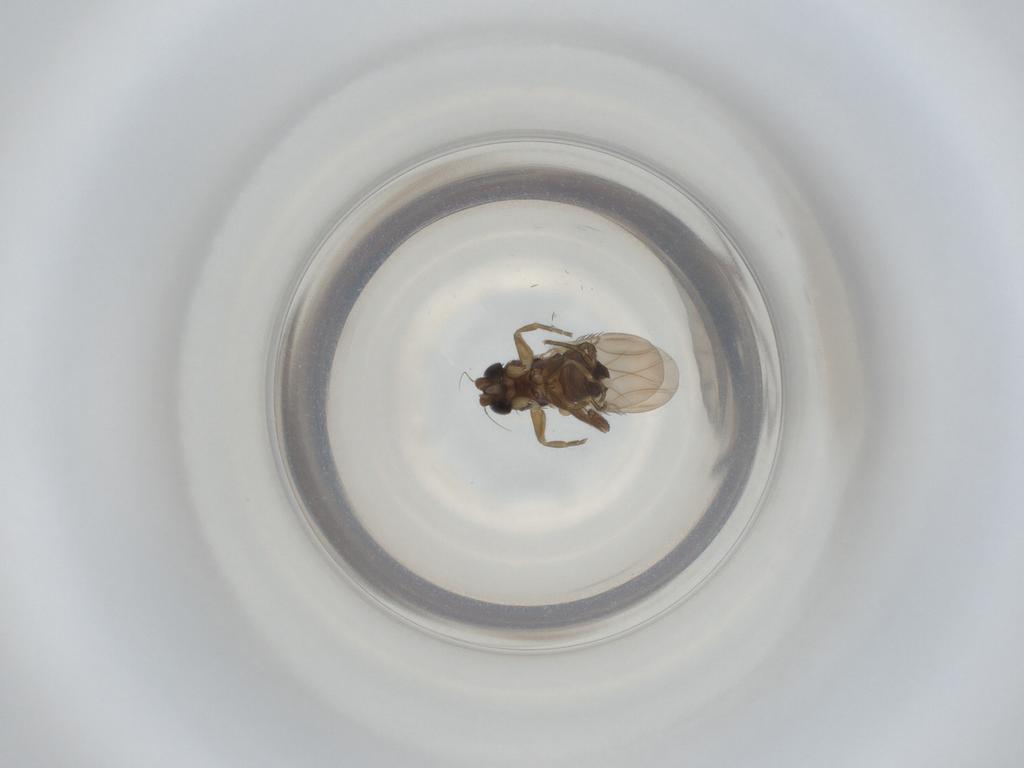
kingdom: Animalia
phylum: Arthropoda
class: Insecta
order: Diptera
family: Phoridae
